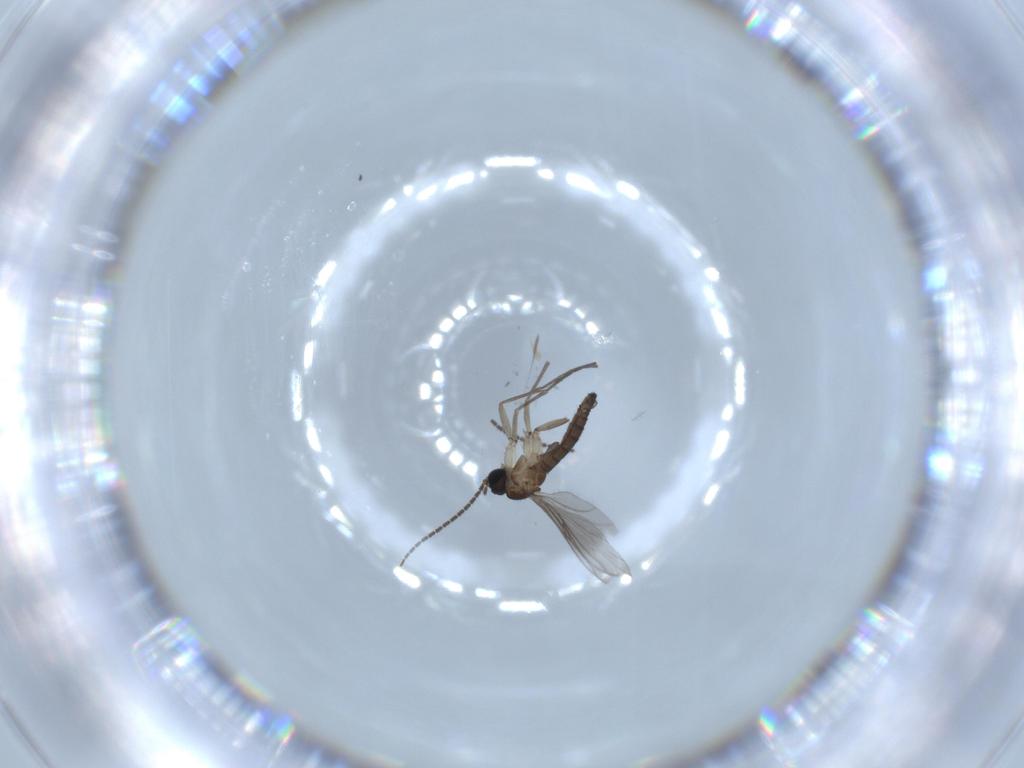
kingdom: Animalia
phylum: Arthropoda
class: Insecta
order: Diptera
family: Sciaridae
